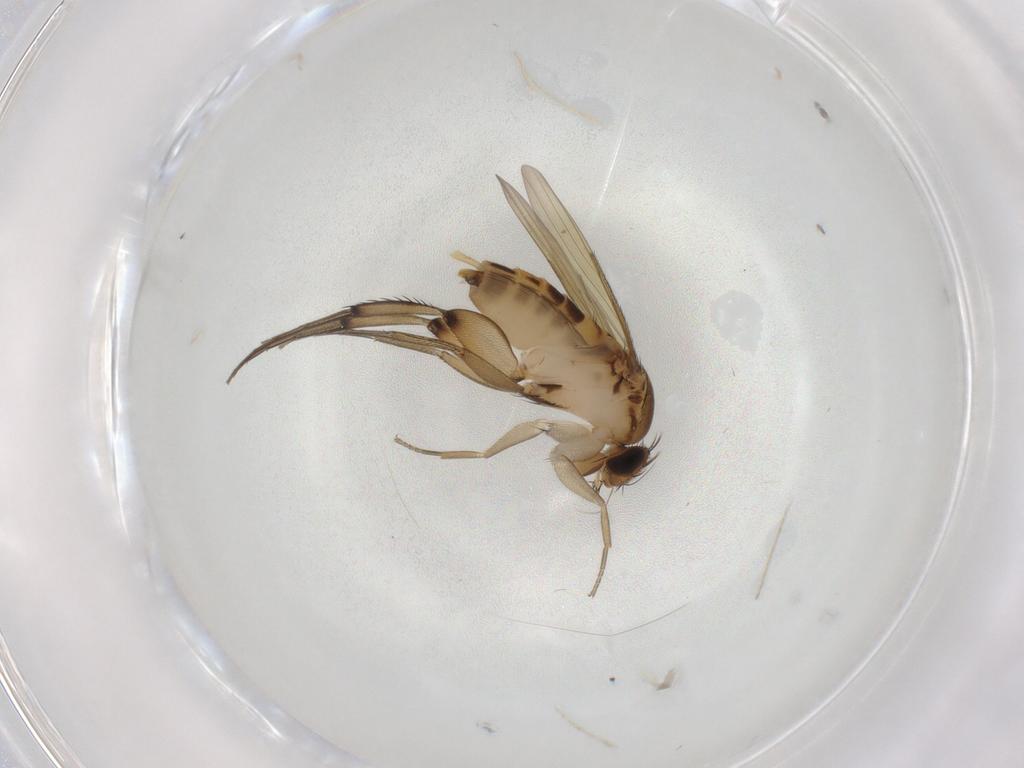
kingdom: Animalia
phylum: Arthropoda
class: Insecta
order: Diptera
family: Phoridae
